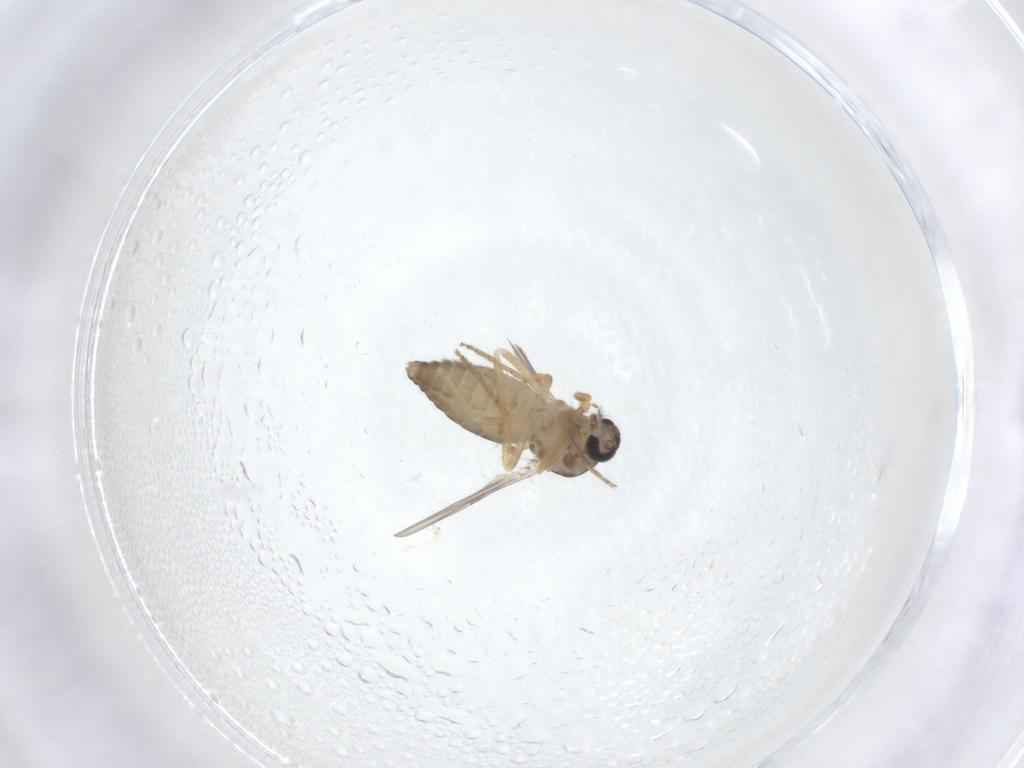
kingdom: Animalia
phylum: Arthropoda
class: Insecta
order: Diptera
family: Ceratopogonidae
